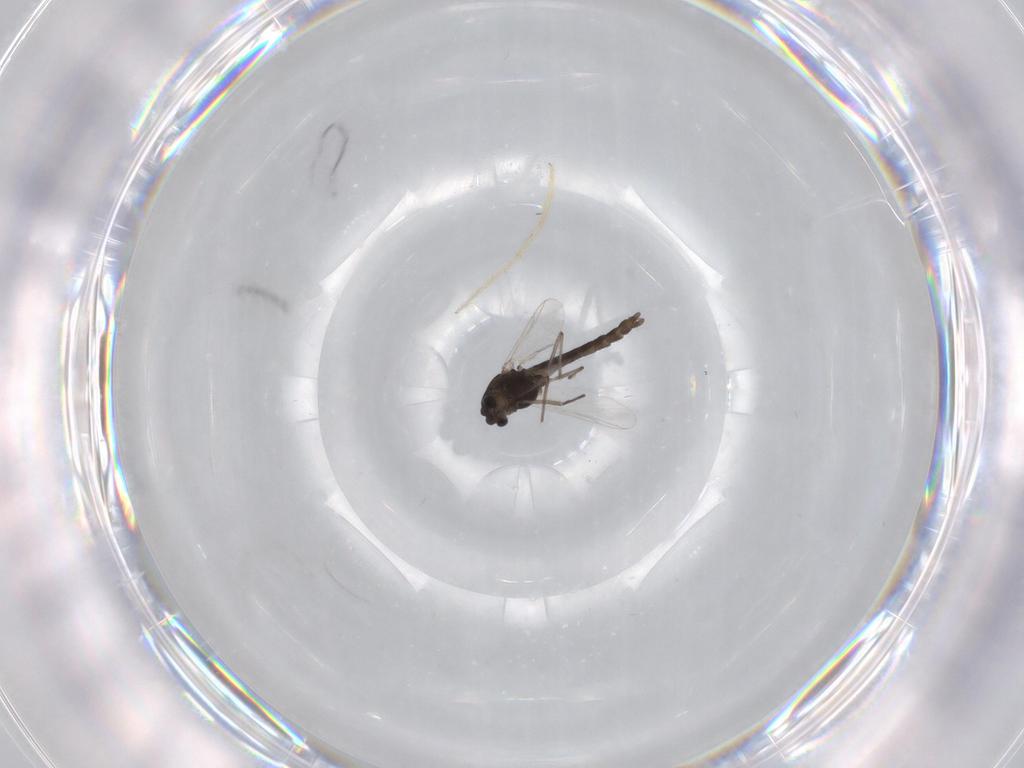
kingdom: Animalia
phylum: Arthropoda
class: Insecta
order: Diptera
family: Chironomidae
